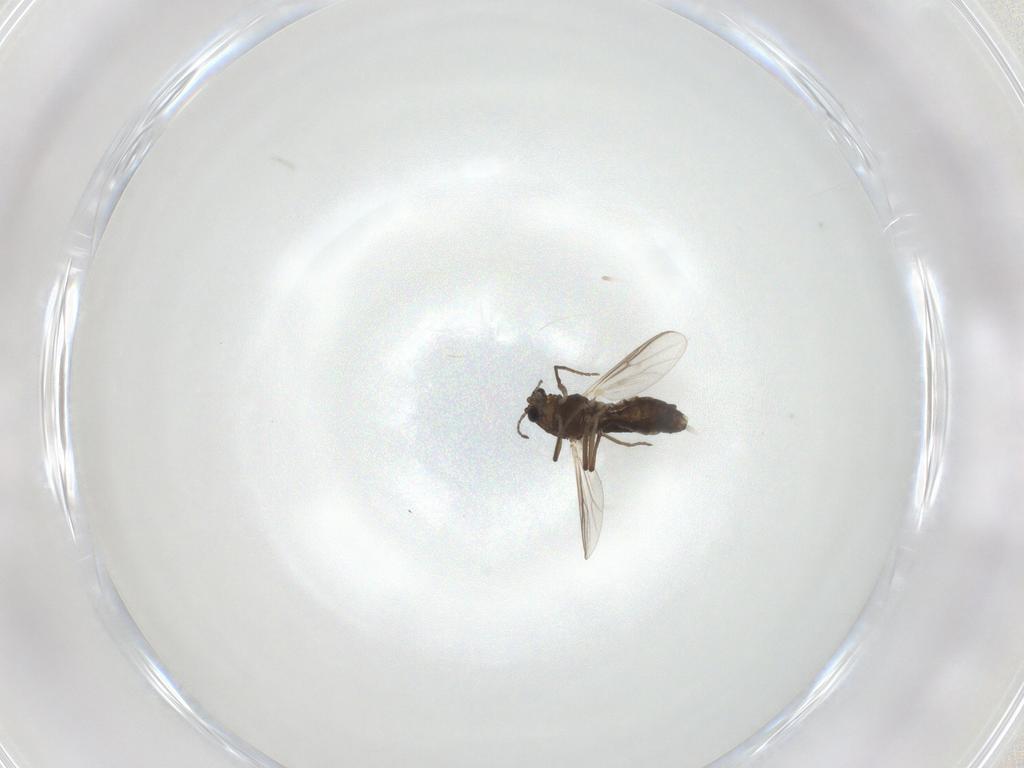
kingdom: Animalia
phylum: Arthropoda
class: Insecta
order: Diptera
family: Chironomidae
